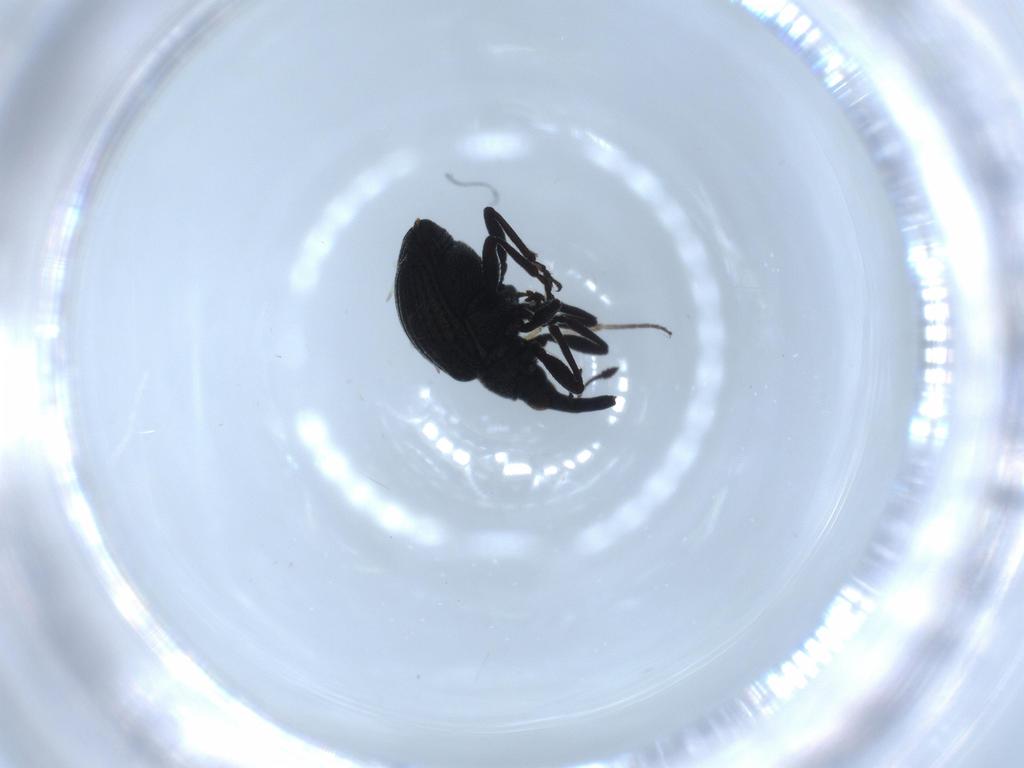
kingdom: Animalia
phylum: Arthropoda
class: Insecta
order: Coleoptera
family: Brentidae
